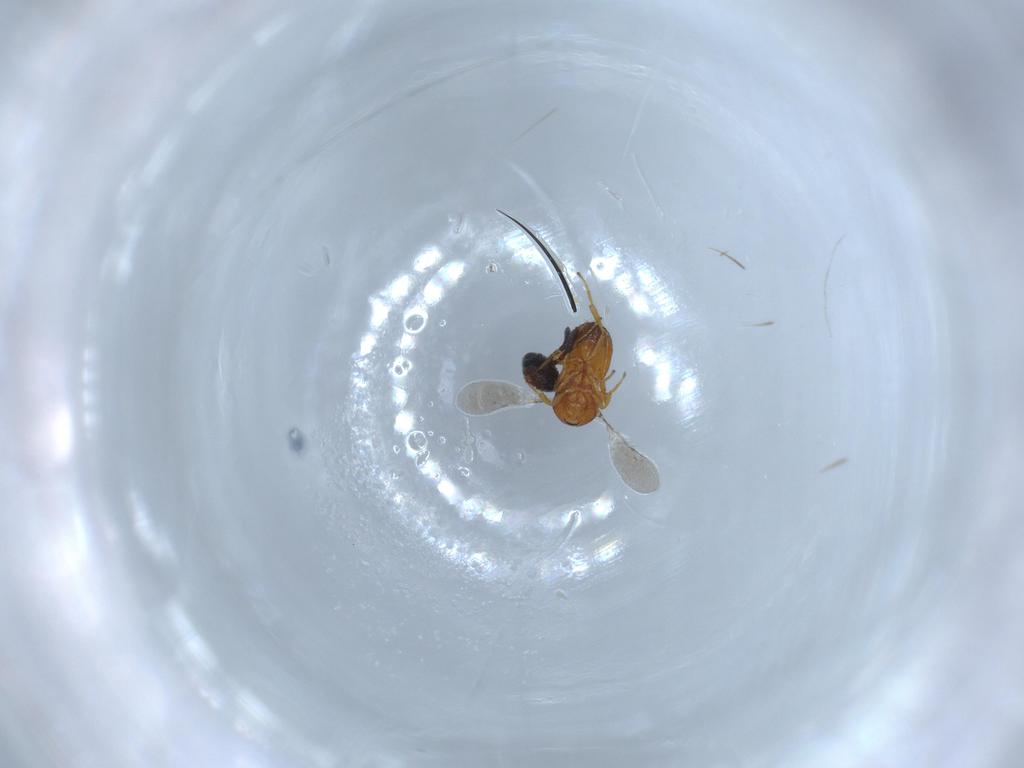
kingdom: Animalia
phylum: Arthropoda
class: Insecta
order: Hymenoptera
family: Scelionidae
